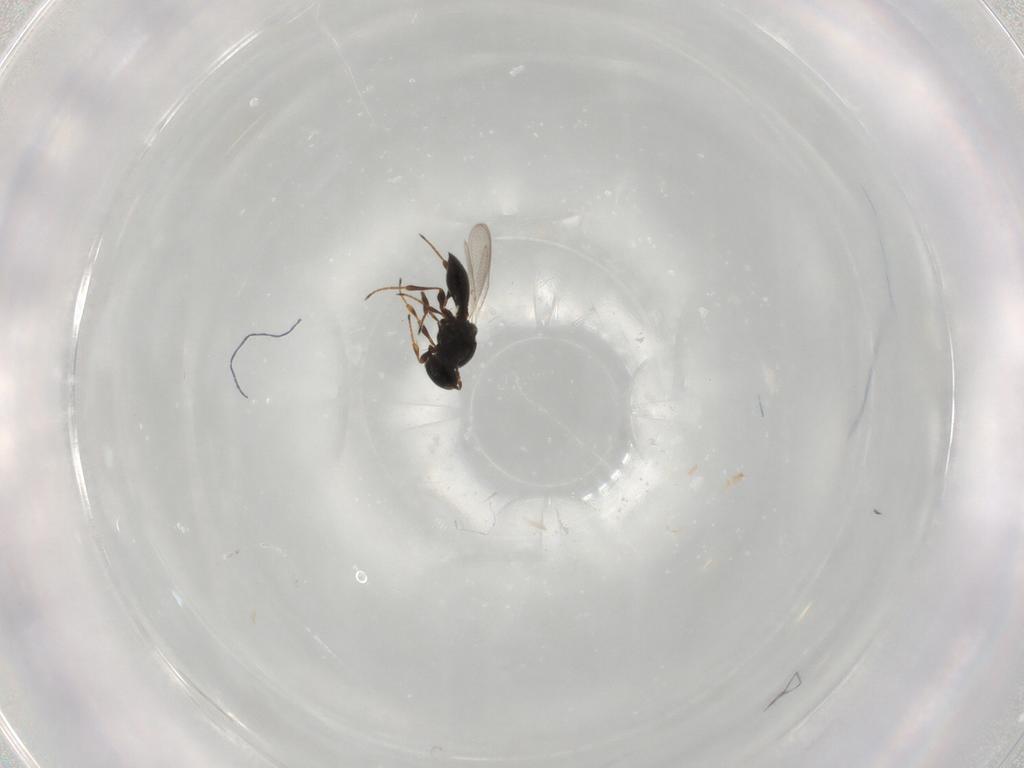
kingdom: Animalia
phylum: Arthropoda
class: Insecta
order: Hymenoptera
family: Platygastridae
